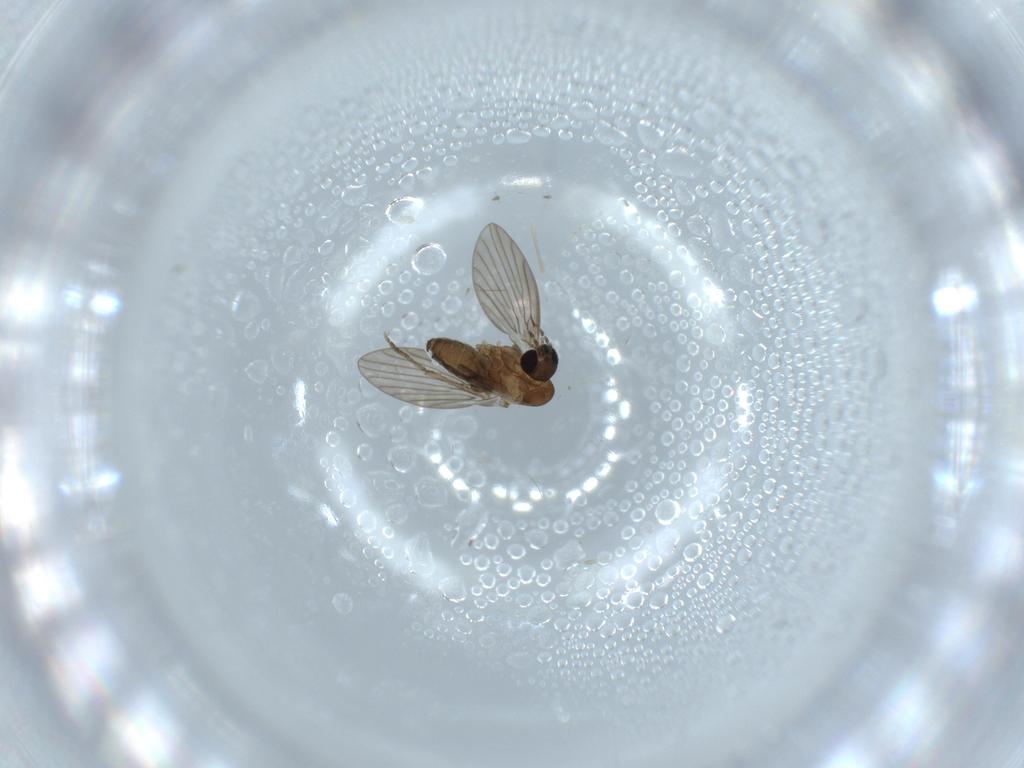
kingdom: Animalia
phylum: Arthropoda
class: Insecta
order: Diptera
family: Psychodidae
